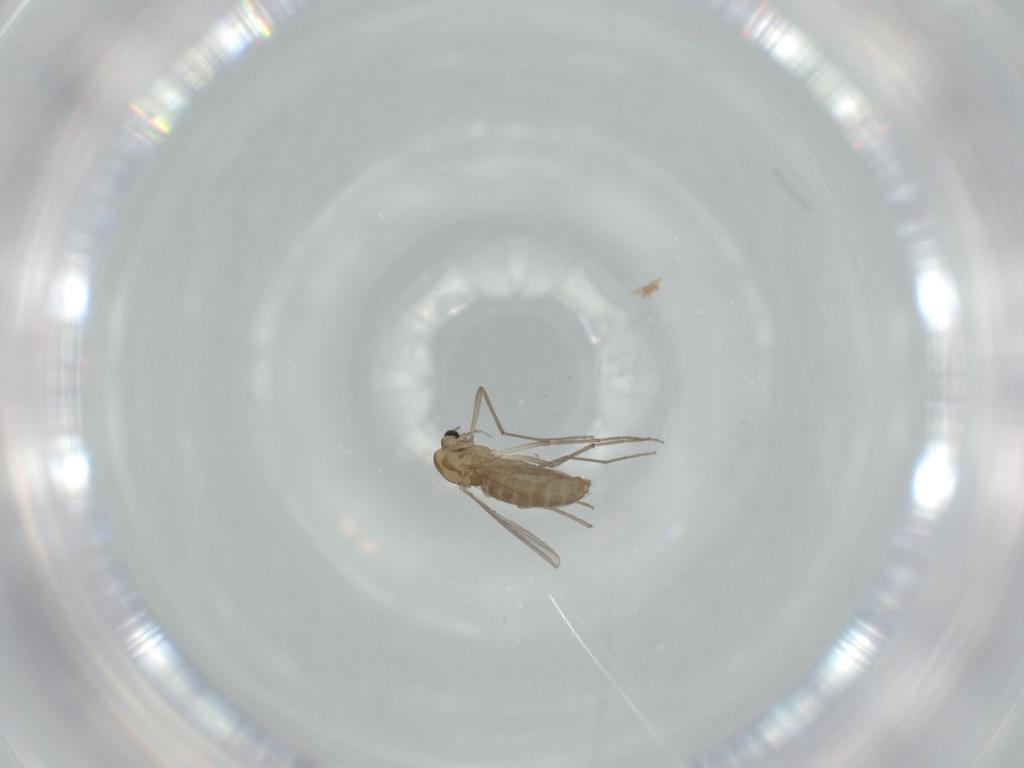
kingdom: Animalia
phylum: Arthropoda
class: Insecta
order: Diptera
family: Chironomidae
